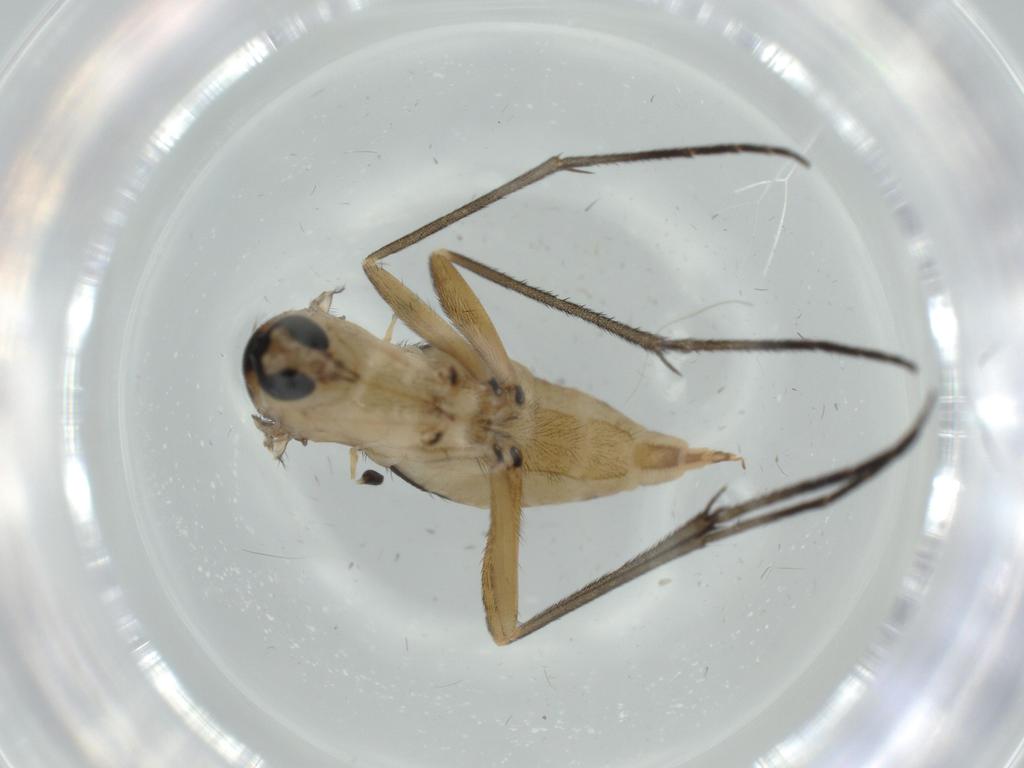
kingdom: Animalia
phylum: Arthropoda
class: Insecta
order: Diptera
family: Sciaridae
